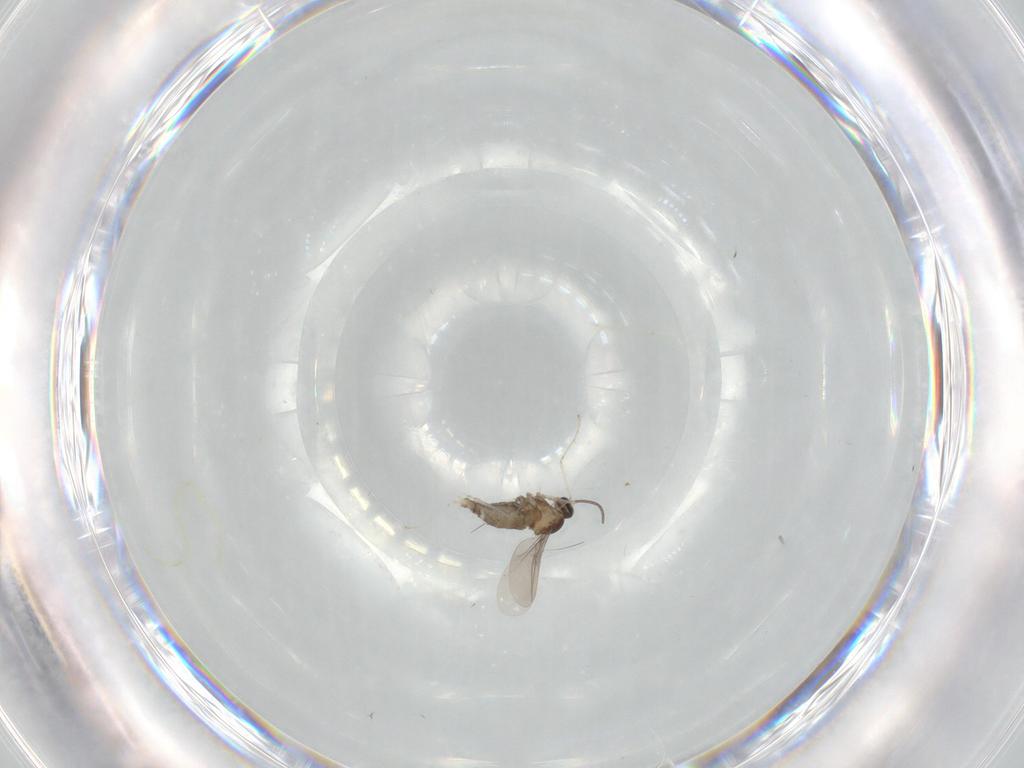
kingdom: Animalia
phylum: Arthropoda
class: Insecta
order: Diptera
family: Cecidomyiidae
